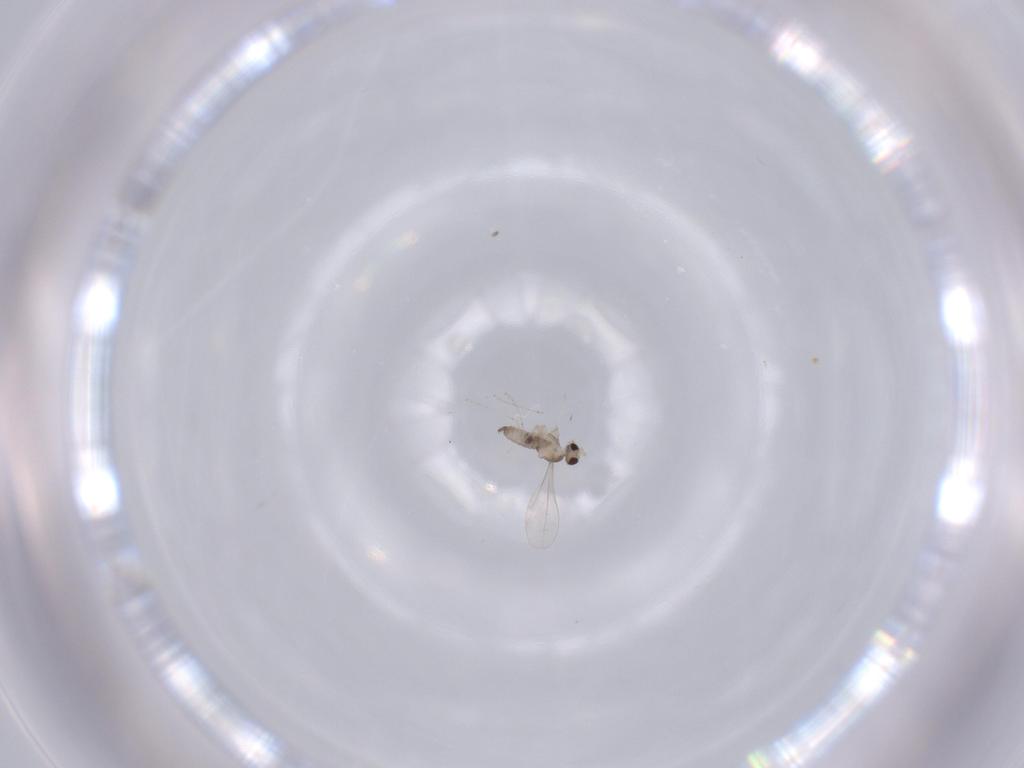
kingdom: Animalia
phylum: Arthropoda
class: Insecta
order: Diptera
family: Cecidomyiidae
